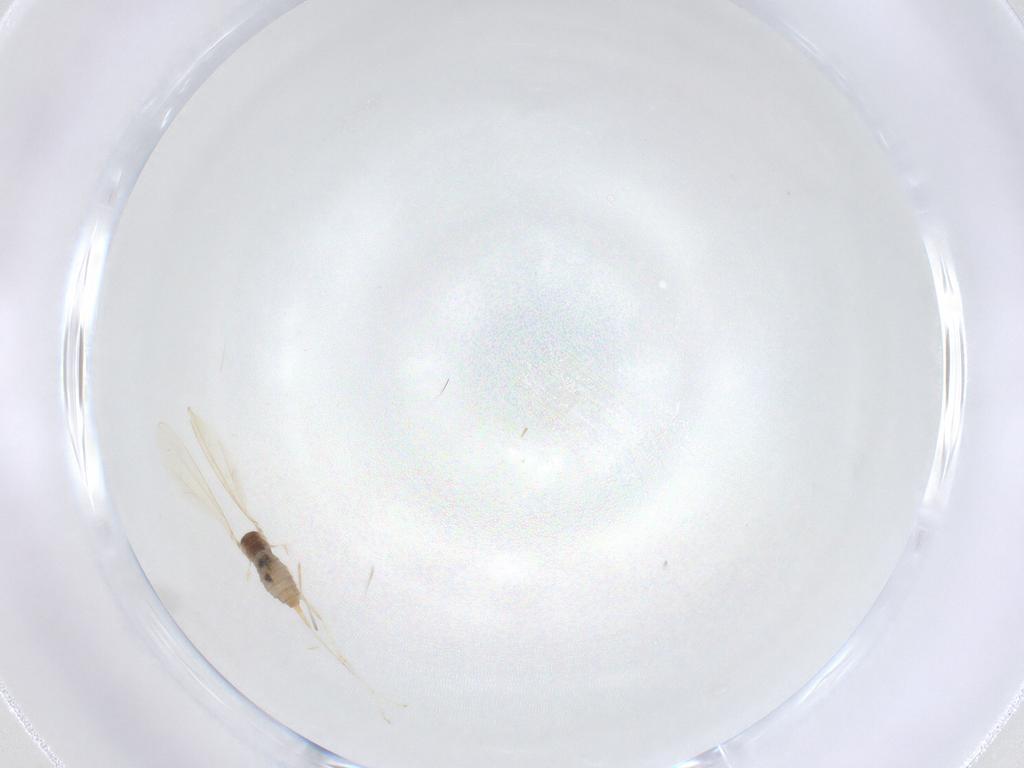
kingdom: Animalia
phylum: Arthropoda
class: Insecta
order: Diptera
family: Cecidomyiidae
